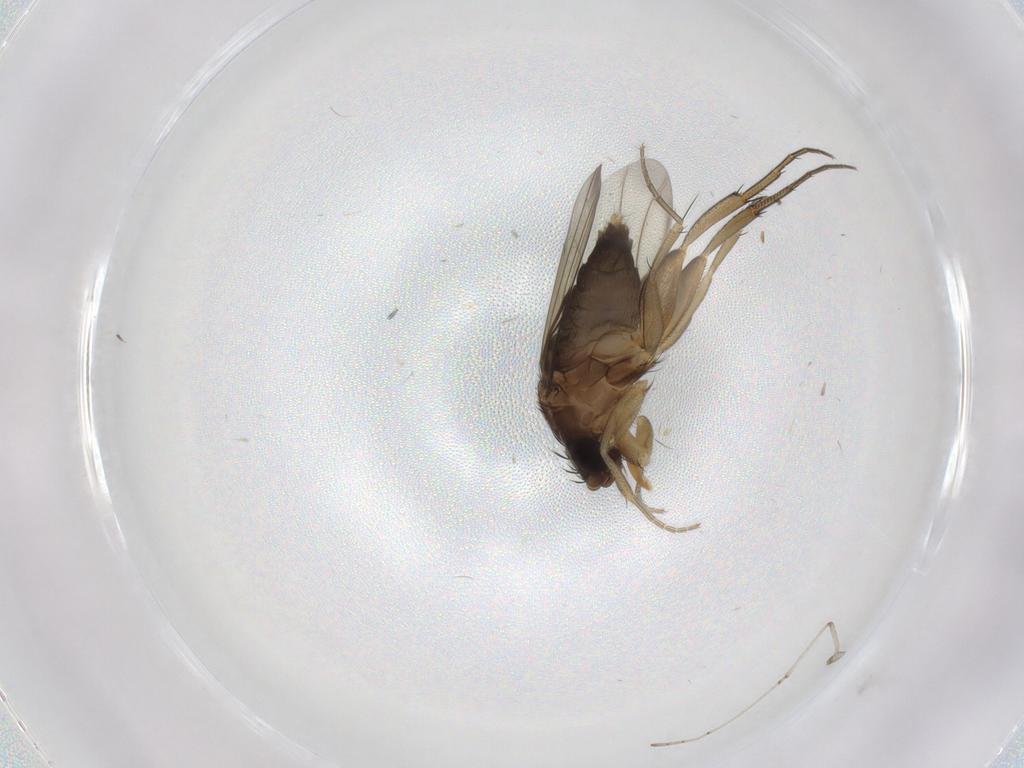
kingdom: Animalia
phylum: Arthropoda
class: Insecta
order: Diptera
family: Phoridae
